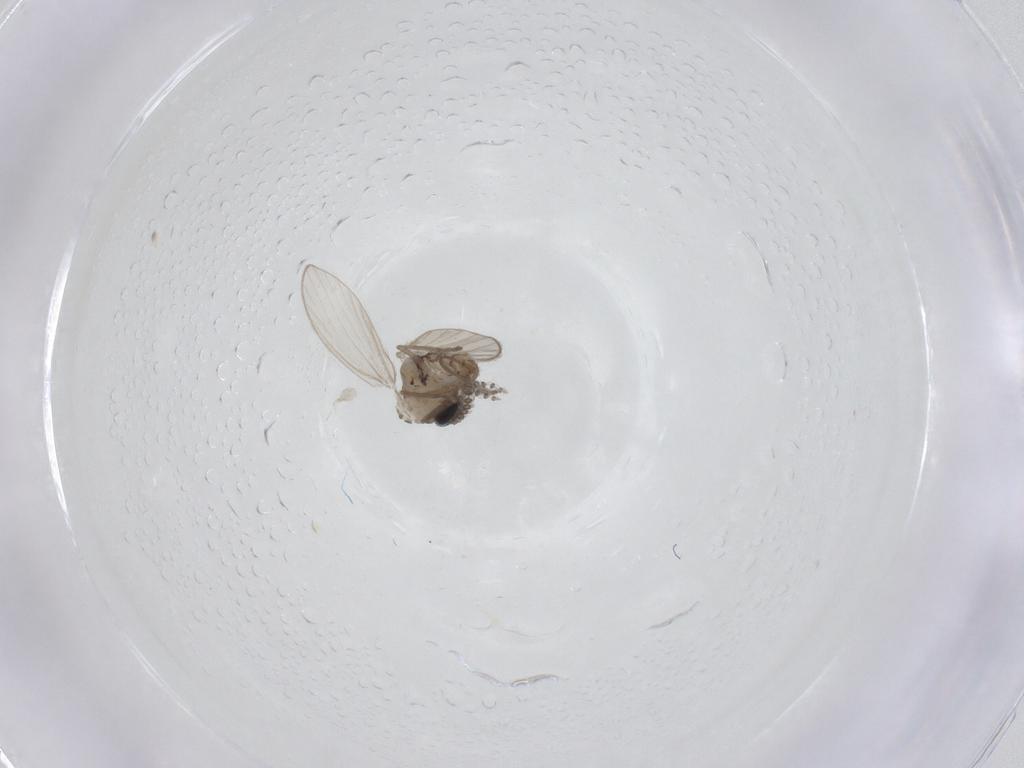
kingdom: Animalia
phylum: Arthropoda
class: Insecta
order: Diptera
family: Psychodidae
